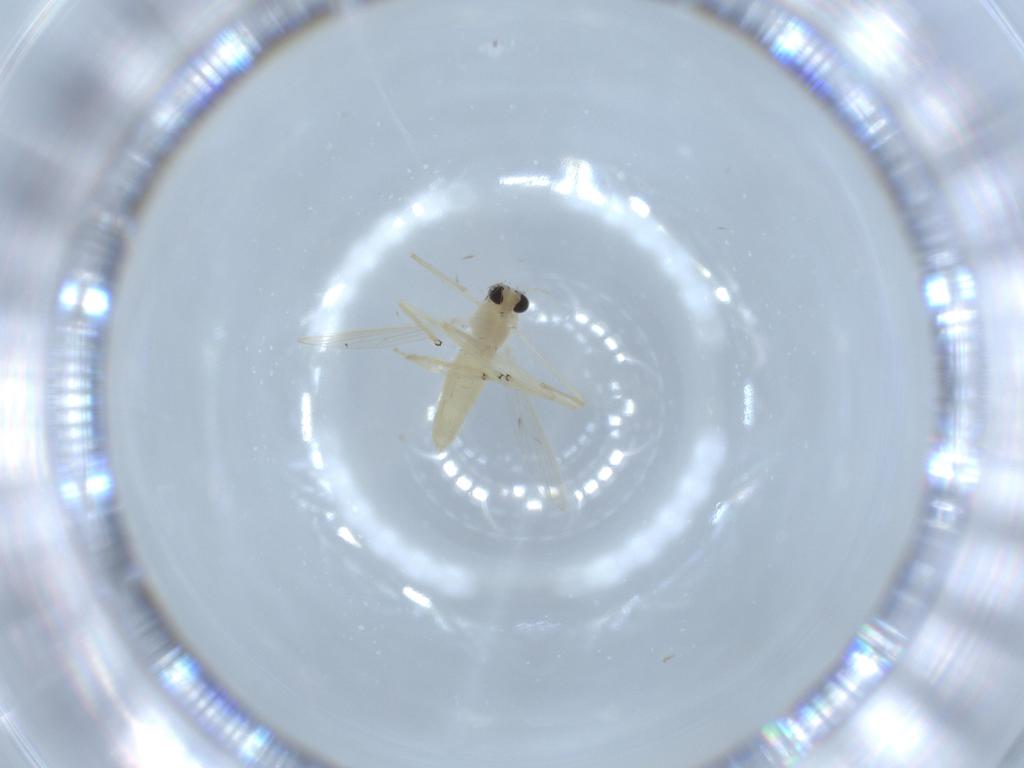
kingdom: Animalia
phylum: Arthropoda
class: Insecta
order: Diptera
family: Chironomidae
